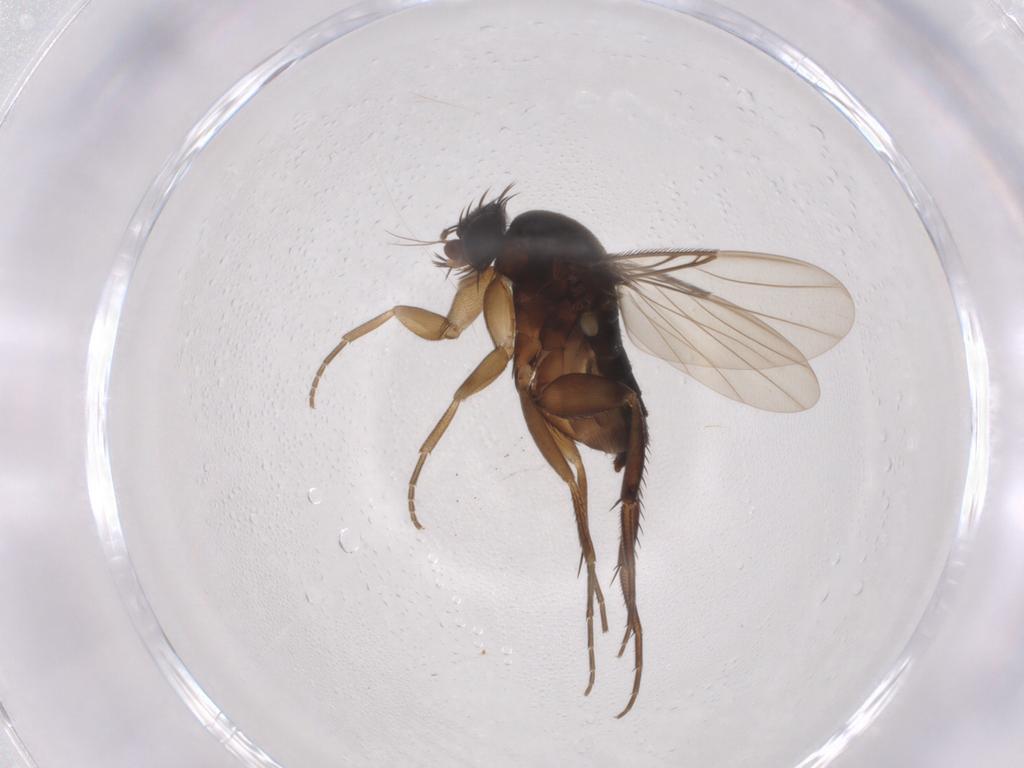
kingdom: Animalia
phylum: Arthropoda
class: Insecta
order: Diptera
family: Phoridae
